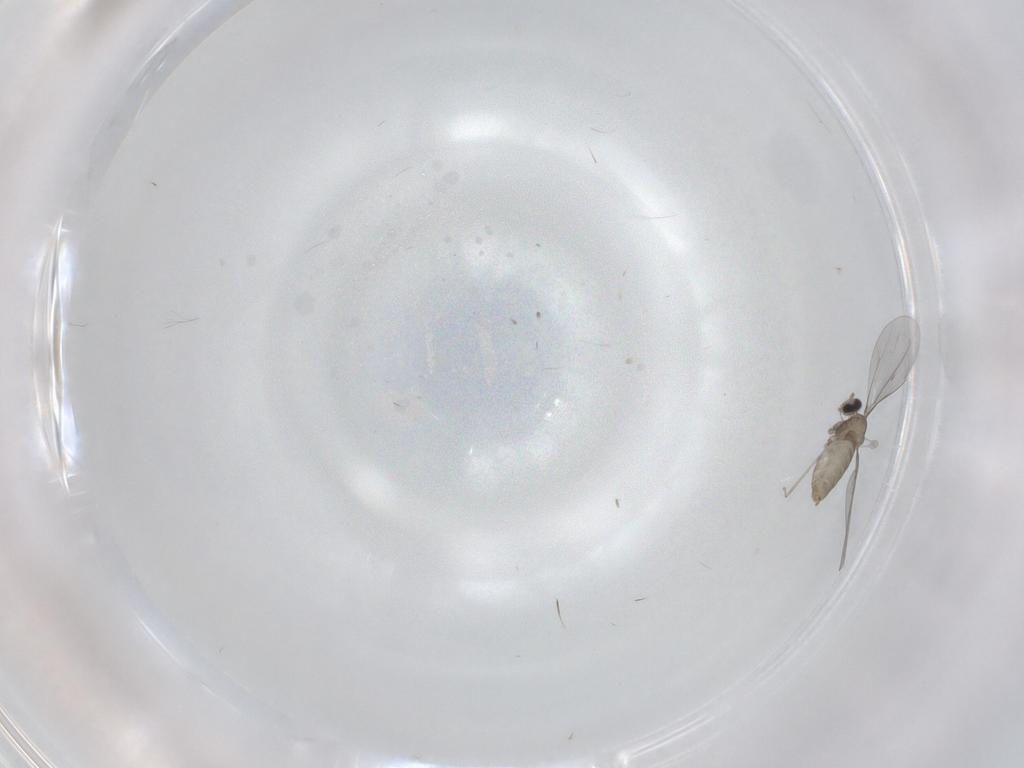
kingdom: Animalia
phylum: Arthropoda
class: Insecta
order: Diptera
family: Cecidomyiidae
